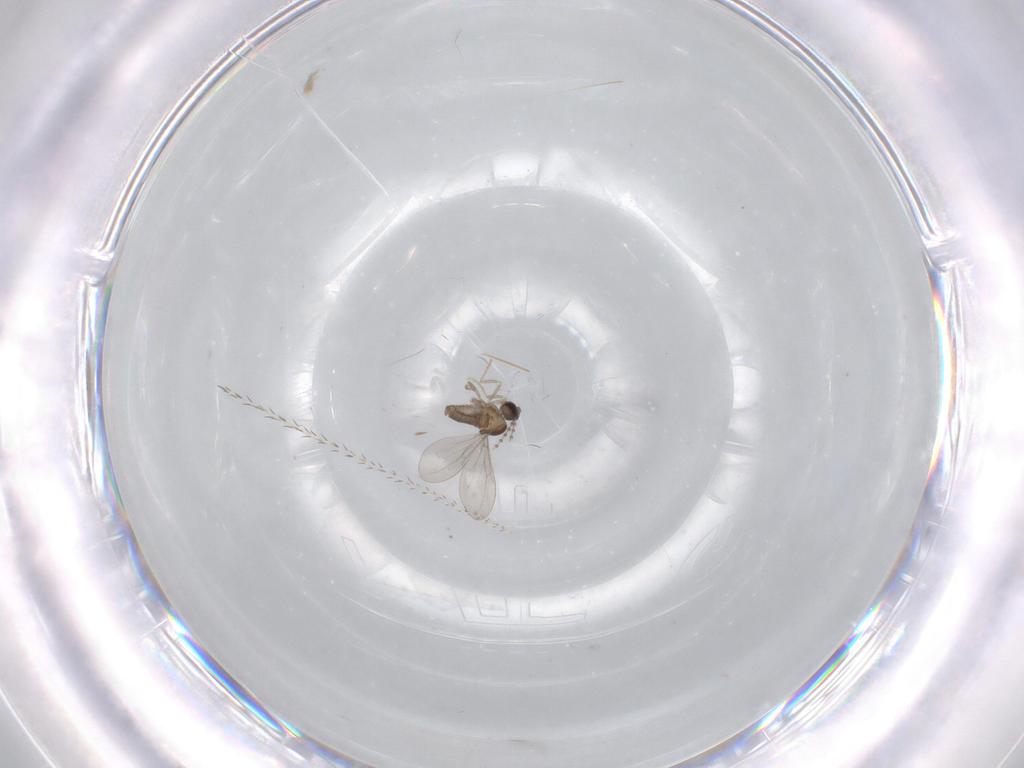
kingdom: Animalia
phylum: Arthropoda
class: Insecta
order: Diptera
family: Cecidomyiidae
